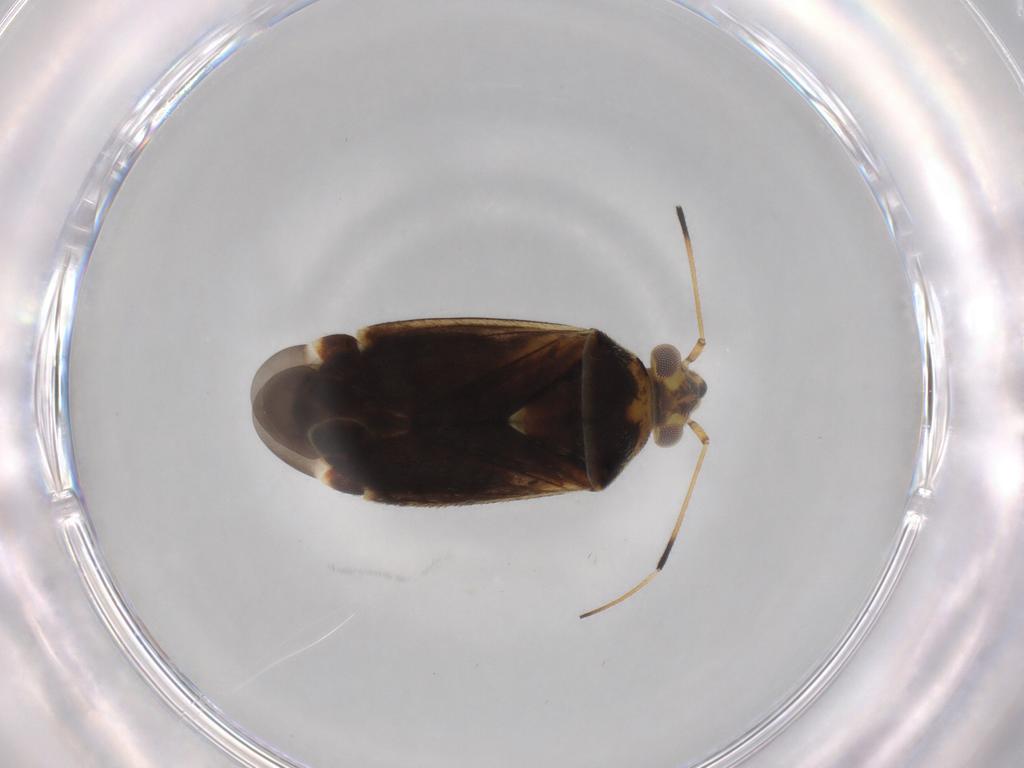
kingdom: Animalia
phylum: Arthropoda
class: Insecta
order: Hemiptera
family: Miridae
